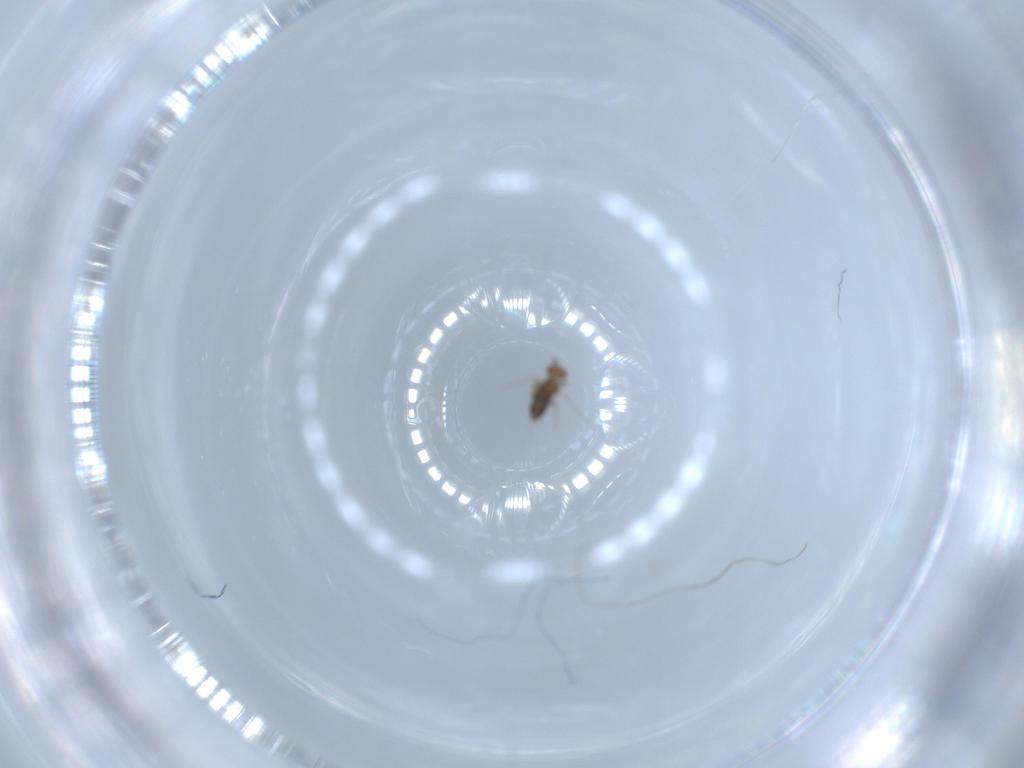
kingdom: Animalia
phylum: Arthropoda
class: Insecta
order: Hymenoptera
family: Trichogrammatidae
